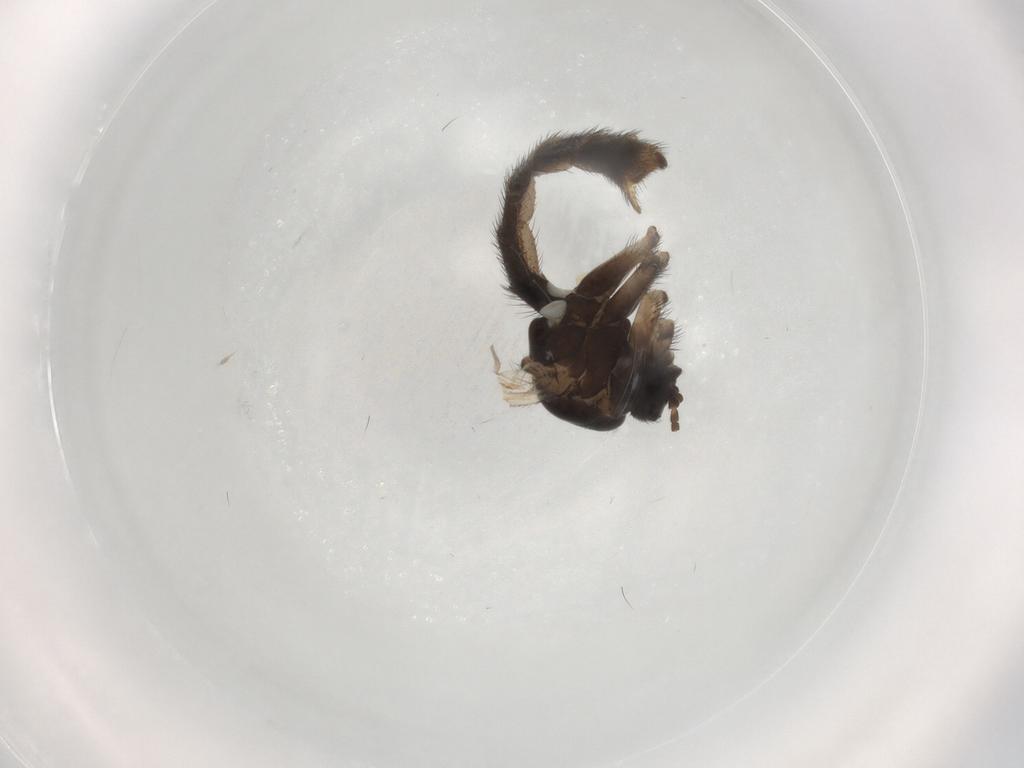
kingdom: Animalia
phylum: Arthropoda
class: Insecta
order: Diptera
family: Keroplatidae
